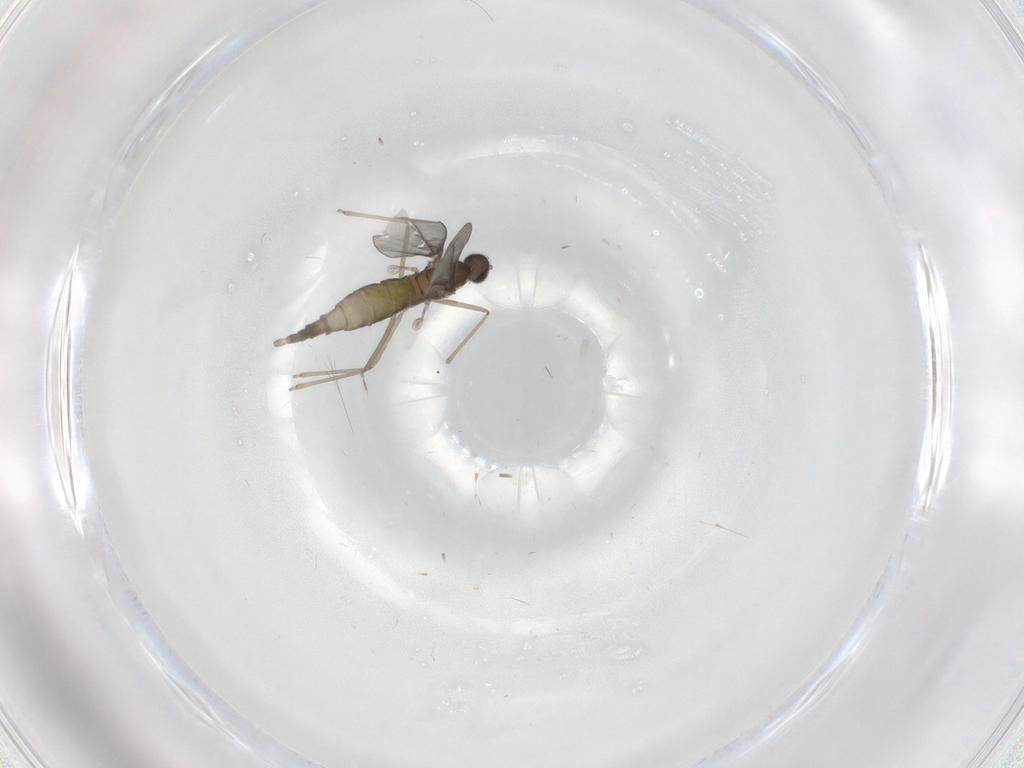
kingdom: Animalia
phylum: Arthropoda
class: Insecta
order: Diptera
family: Cecidomyiidae
